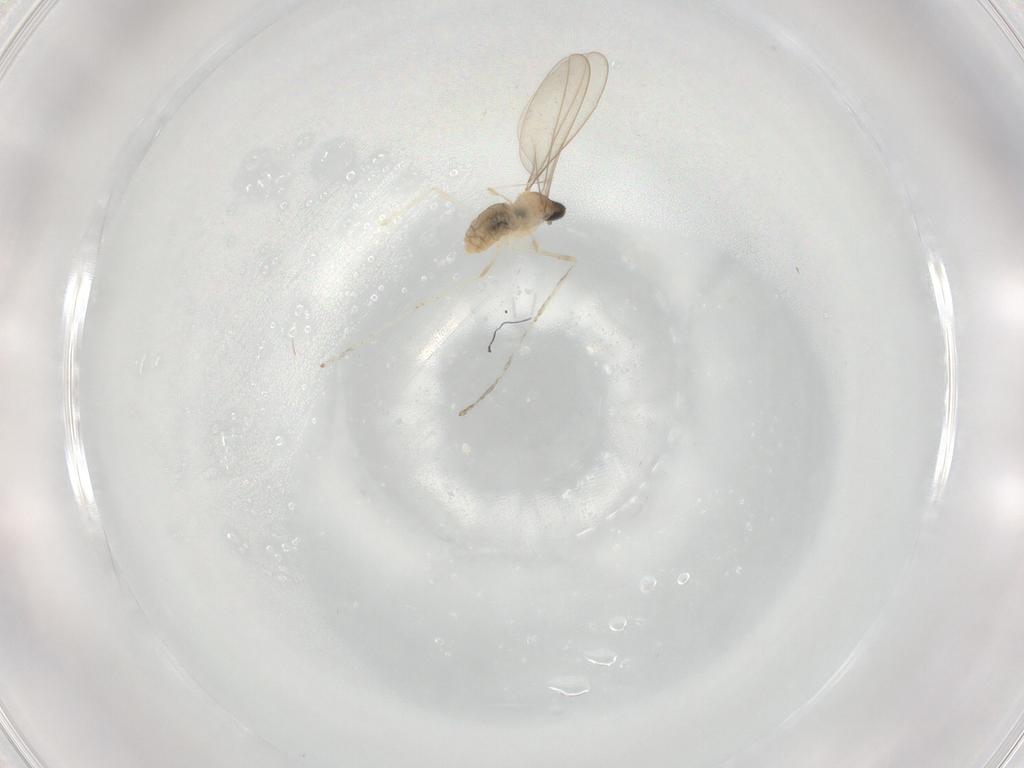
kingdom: Animalia
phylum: Arthropoda
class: Insecta
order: Diptera
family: Cecidomyiidae
